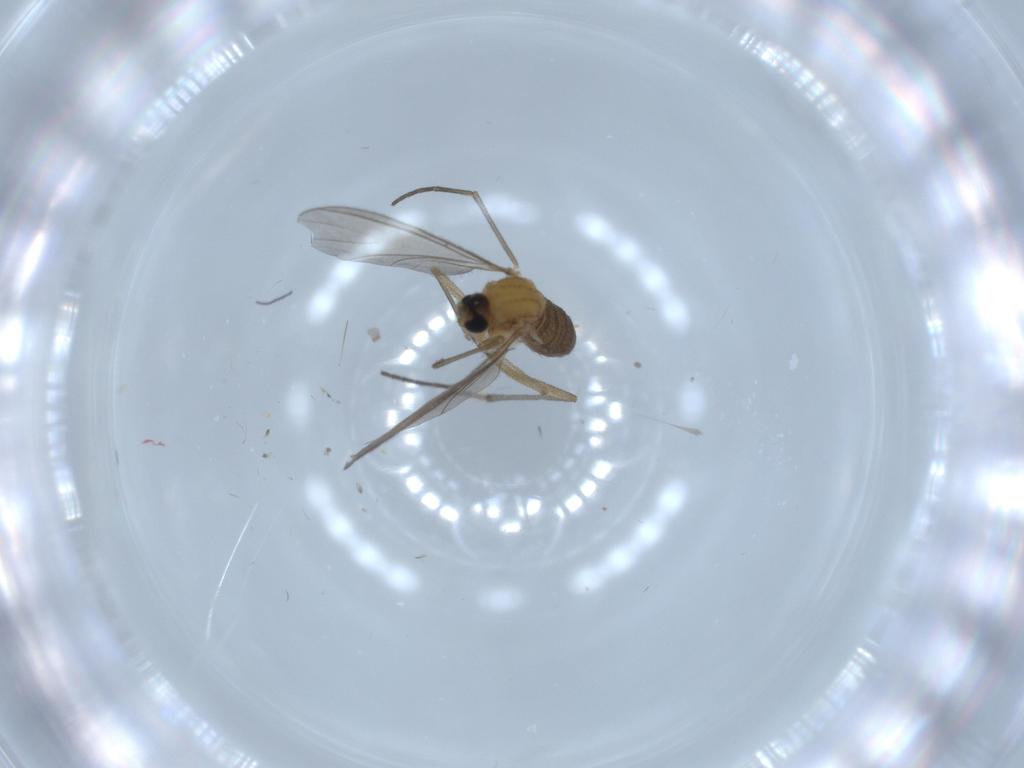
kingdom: Animalia
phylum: Arthropoda
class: Insecta
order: Diptera
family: Sciaridae
